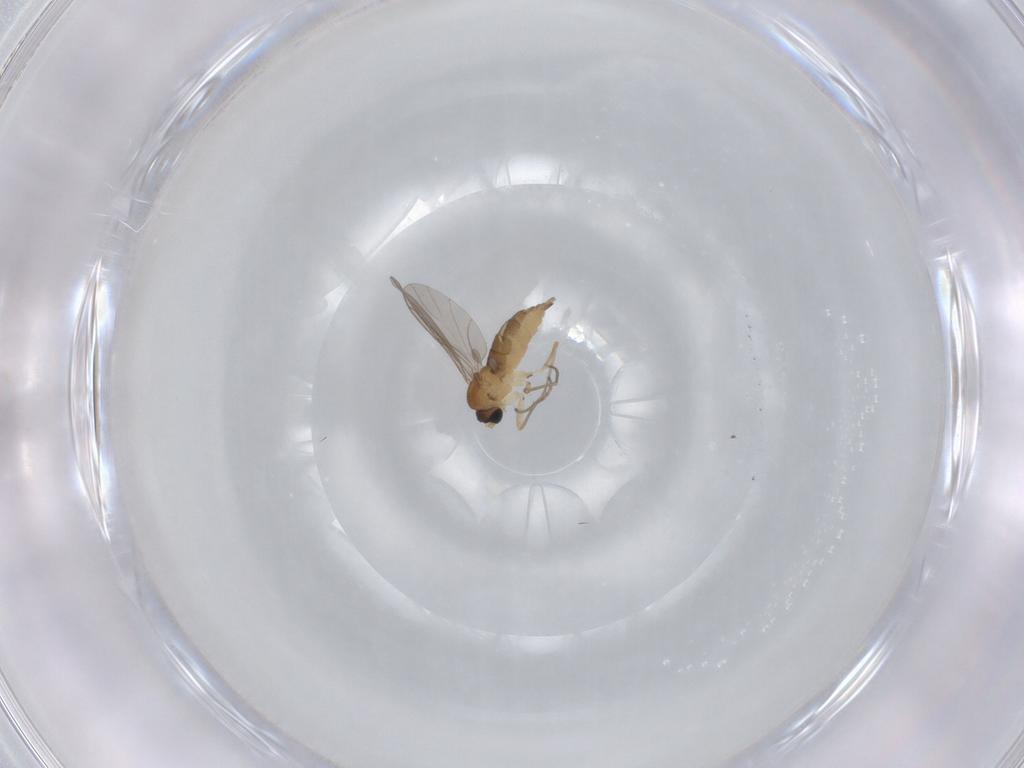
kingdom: Animalia
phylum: Arthropoda
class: Insecta
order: Diptera
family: Sciaridae
